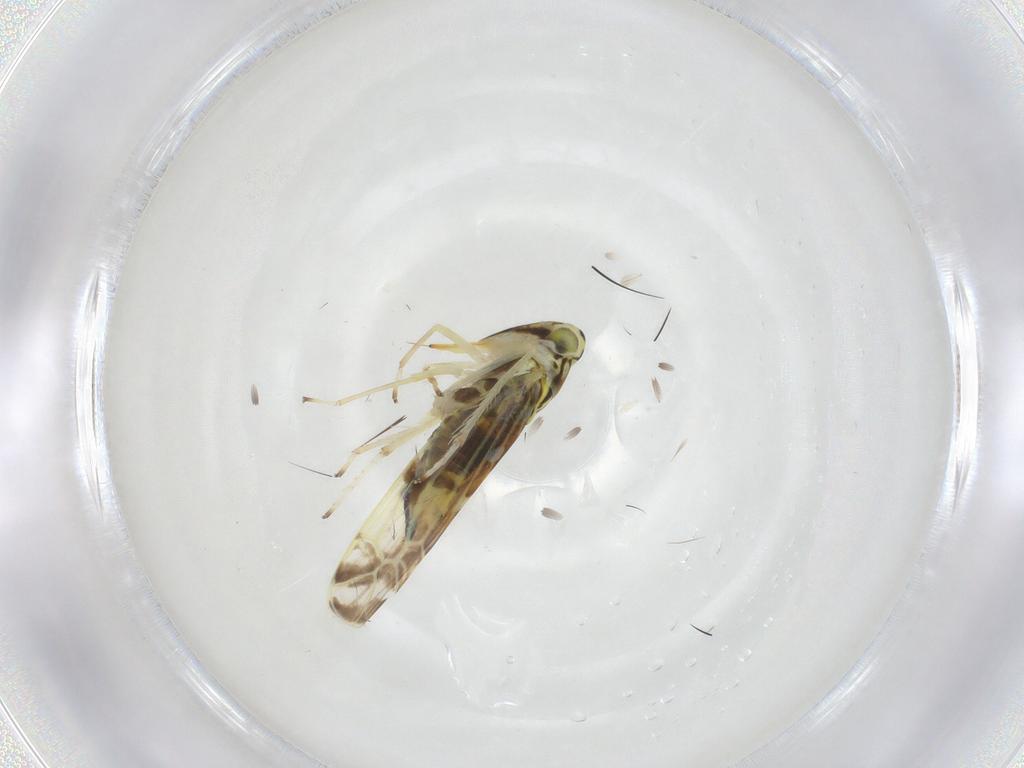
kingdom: Animalia
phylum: Arthropoda
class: Insecta
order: Hemiptera
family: Cicadellidae
